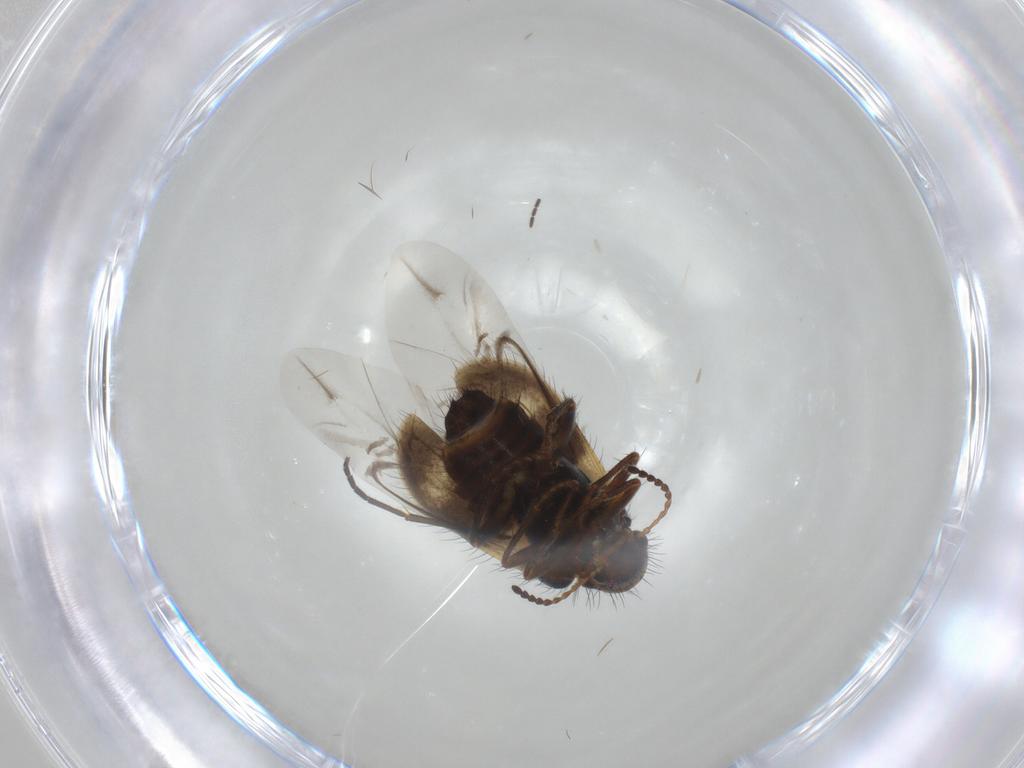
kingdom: Animalia
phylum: Arthropoda
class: Insecta
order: Coleoptera
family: Melyridae
